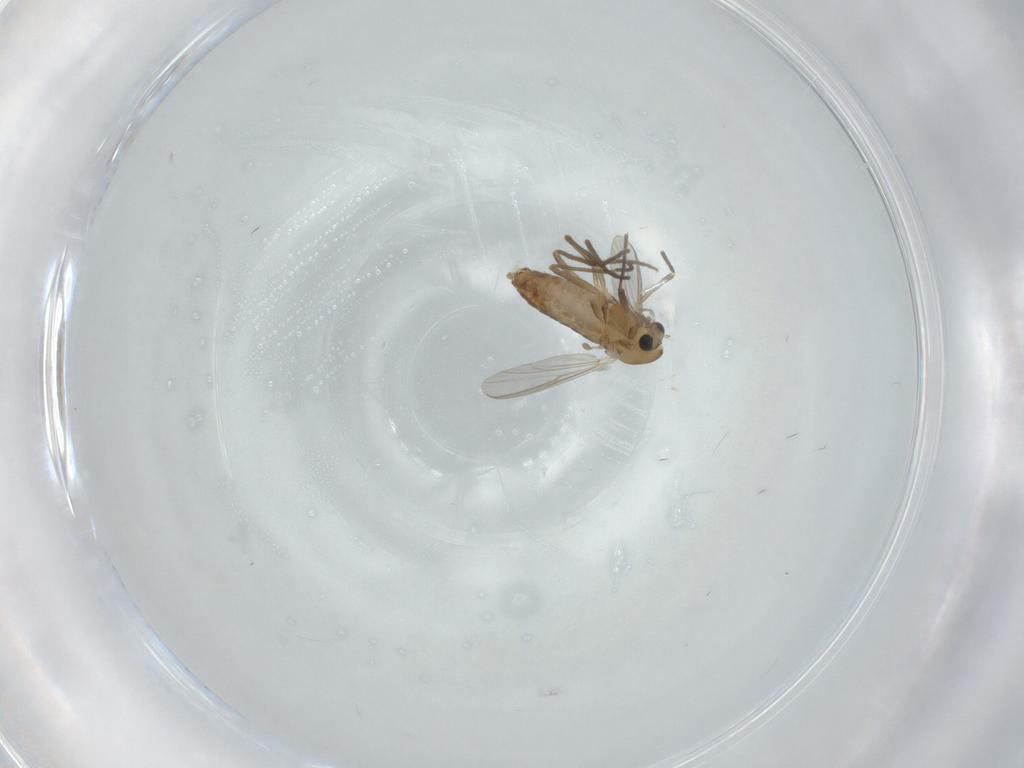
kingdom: Animalia
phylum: Arthropoda
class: Insecta
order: Diptera
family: Chironomidae
